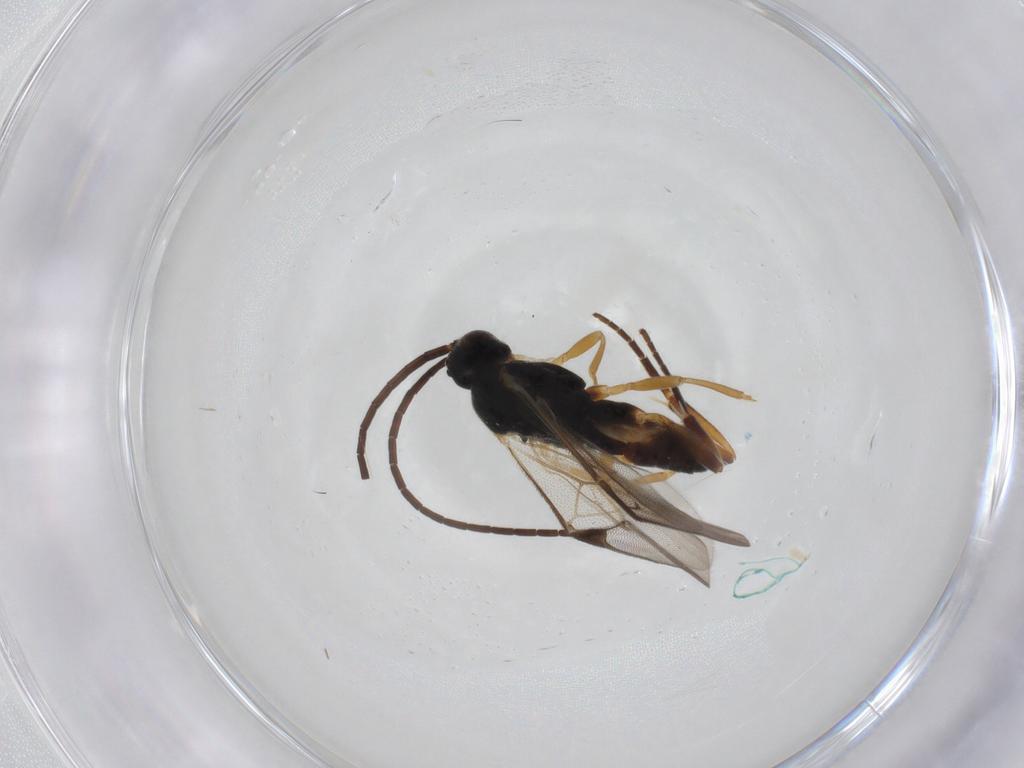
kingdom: Animalia
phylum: Arthropoda
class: Insecta
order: Hymenoptera
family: Braconidae
